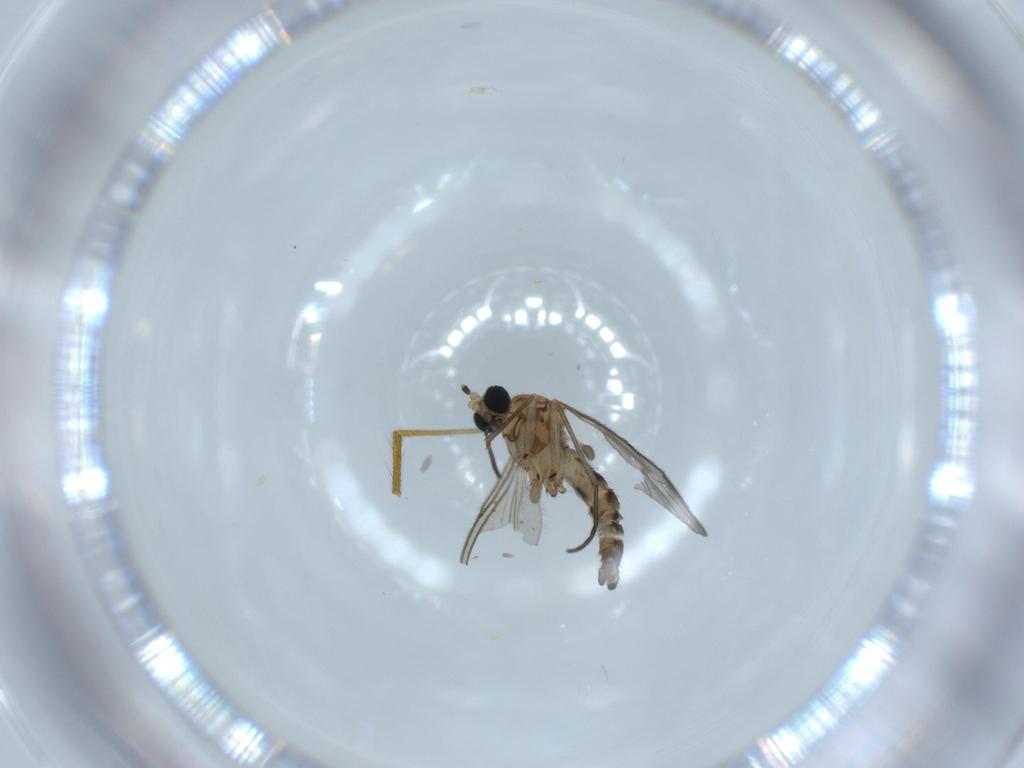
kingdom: Animalia
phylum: Arthropoda
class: Insecta
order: Diptera
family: Sciaridae
